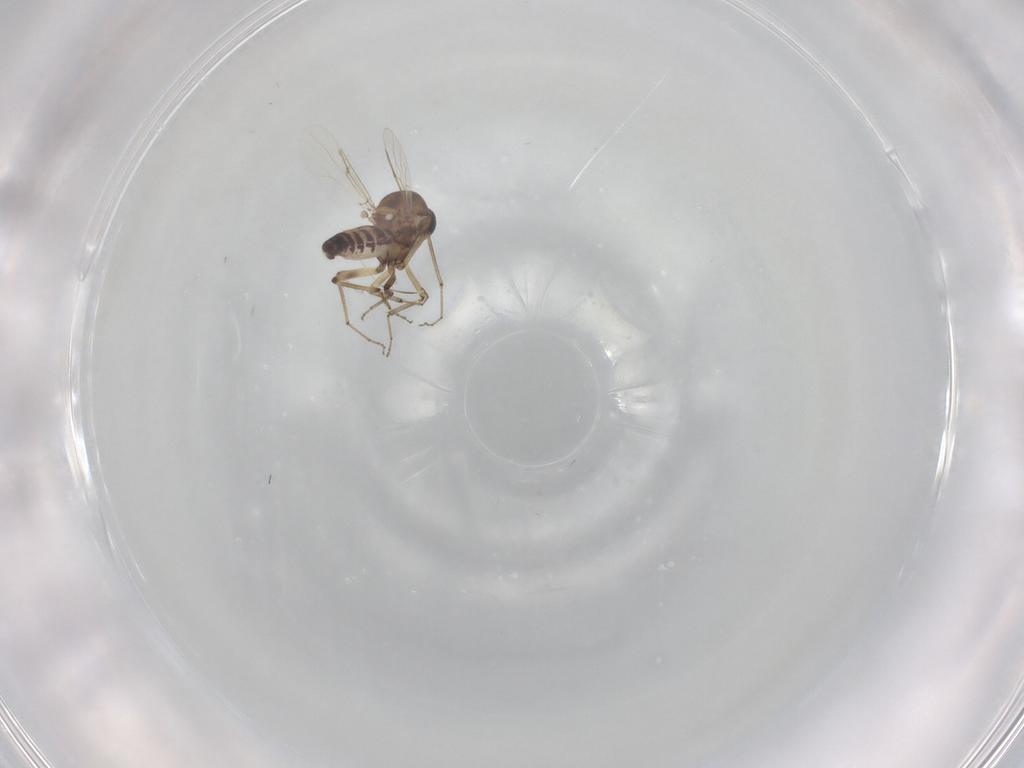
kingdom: Animalia
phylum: Arthropoda
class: Insecta
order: Diptera
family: Ceratopogonidae
